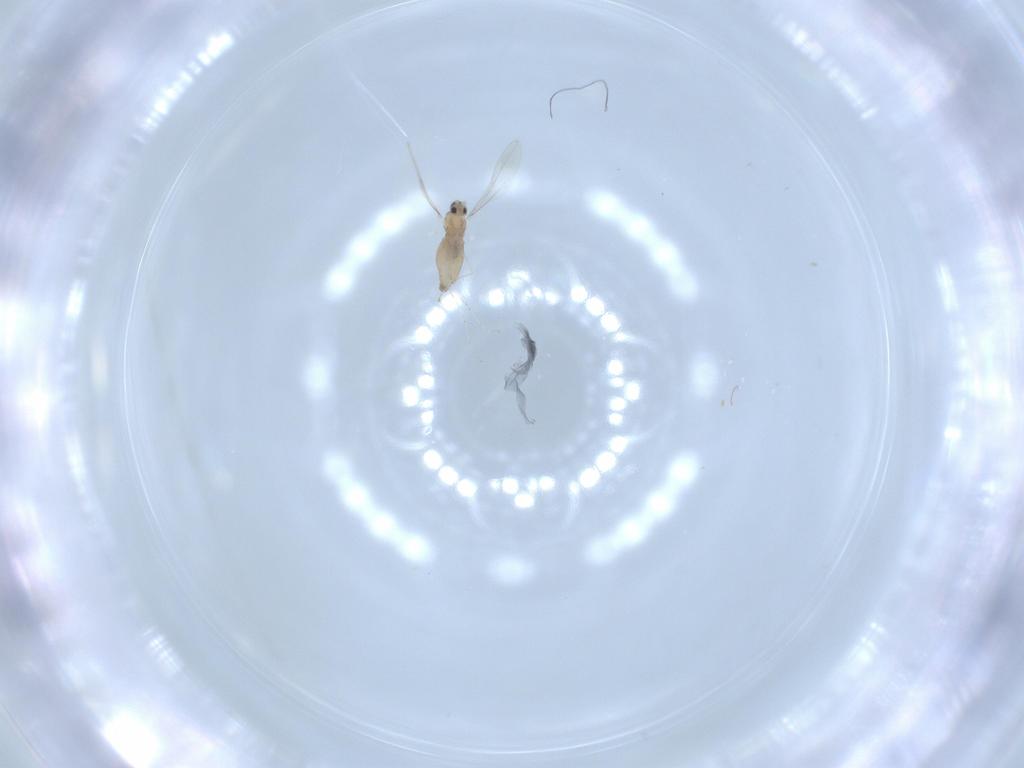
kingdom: Animalia
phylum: Arthropoda
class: Insecta
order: Diptera
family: Cecidomyiidae
